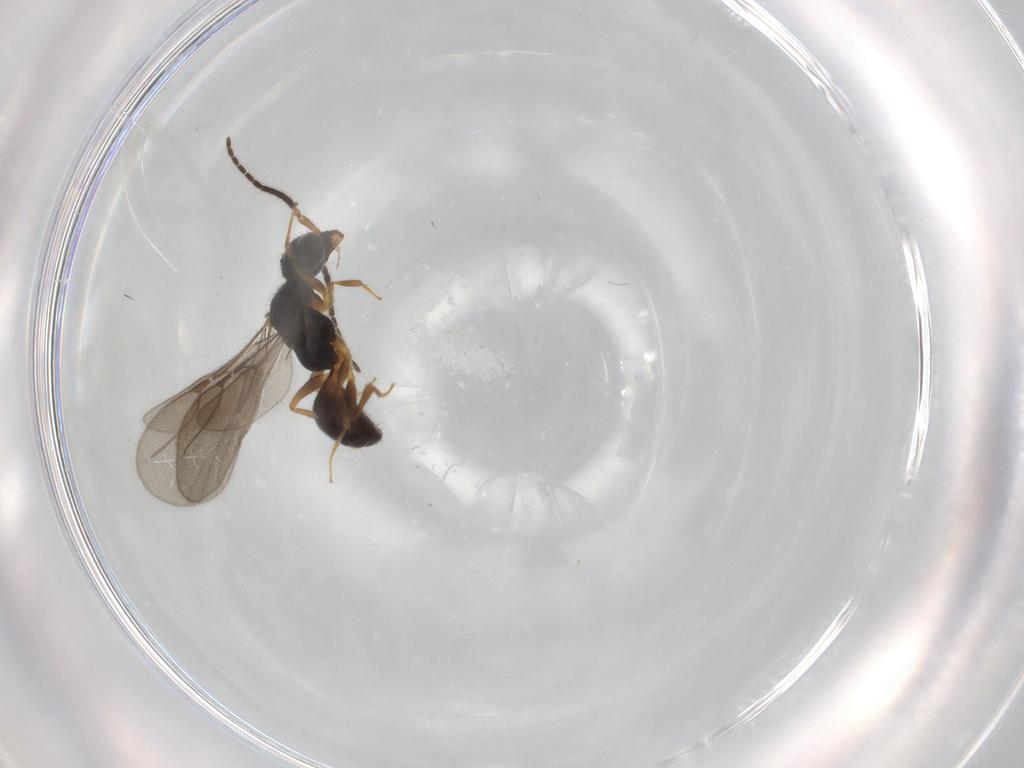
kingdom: Animalia
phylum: Arthropoda
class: Insecta
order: Hymenoptera
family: Bethylidae
